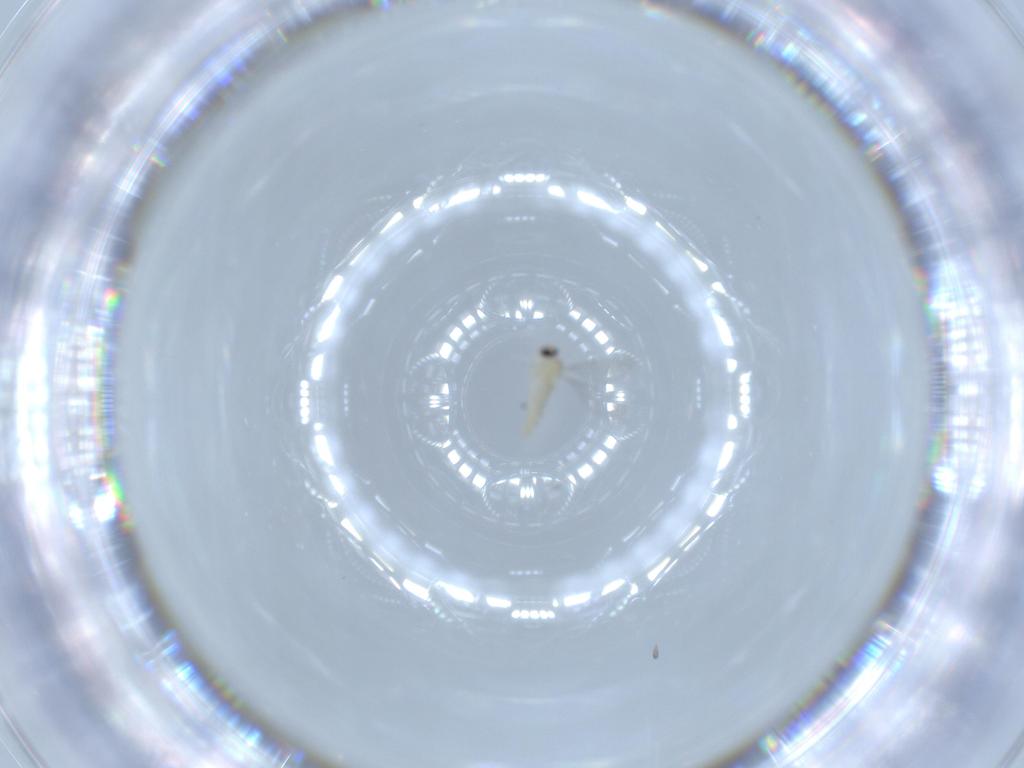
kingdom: Animalia
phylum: Arthropoda
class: Insecta
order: Diptera
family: Cecidomyiidae
